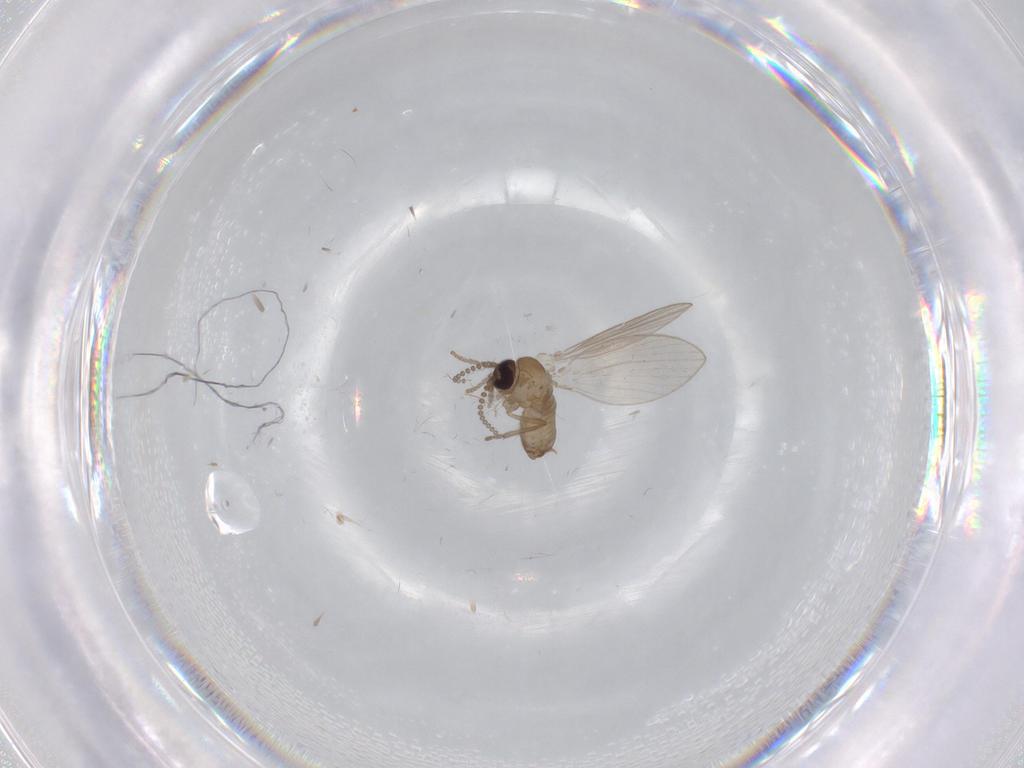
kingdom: Animalia
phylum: Arthropoda
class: Insecta
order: Diptera
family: Psychodidae
